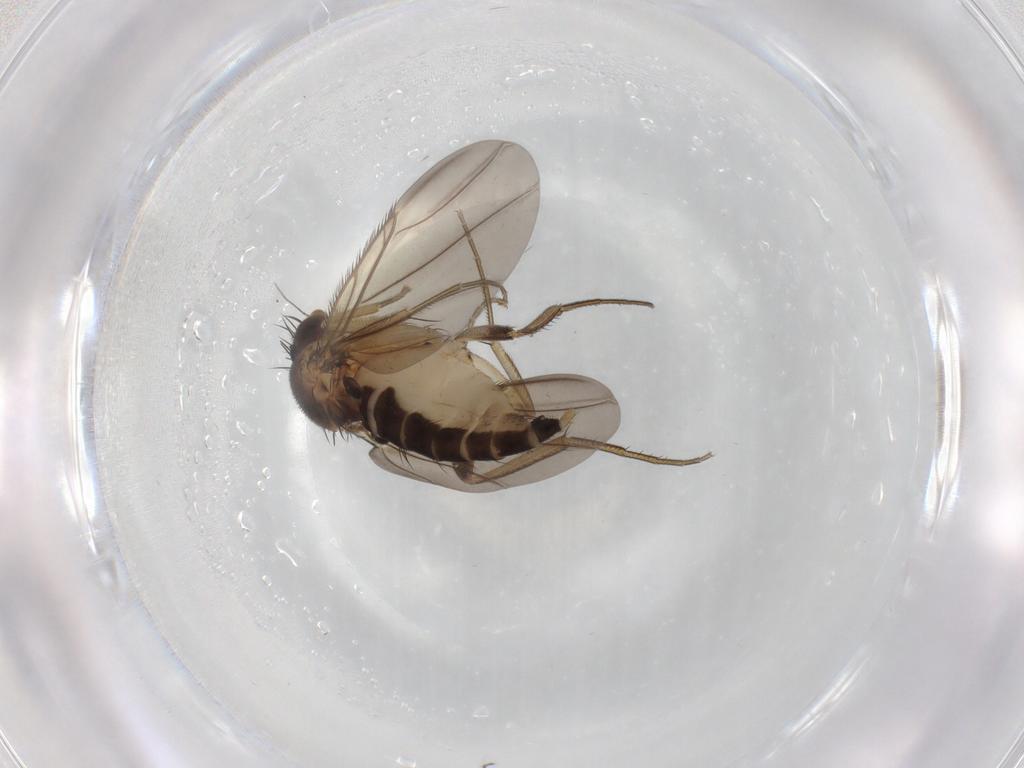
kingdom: Animalia
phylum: Arthropoda
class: Insecta
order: Diptera
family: Phoridae
